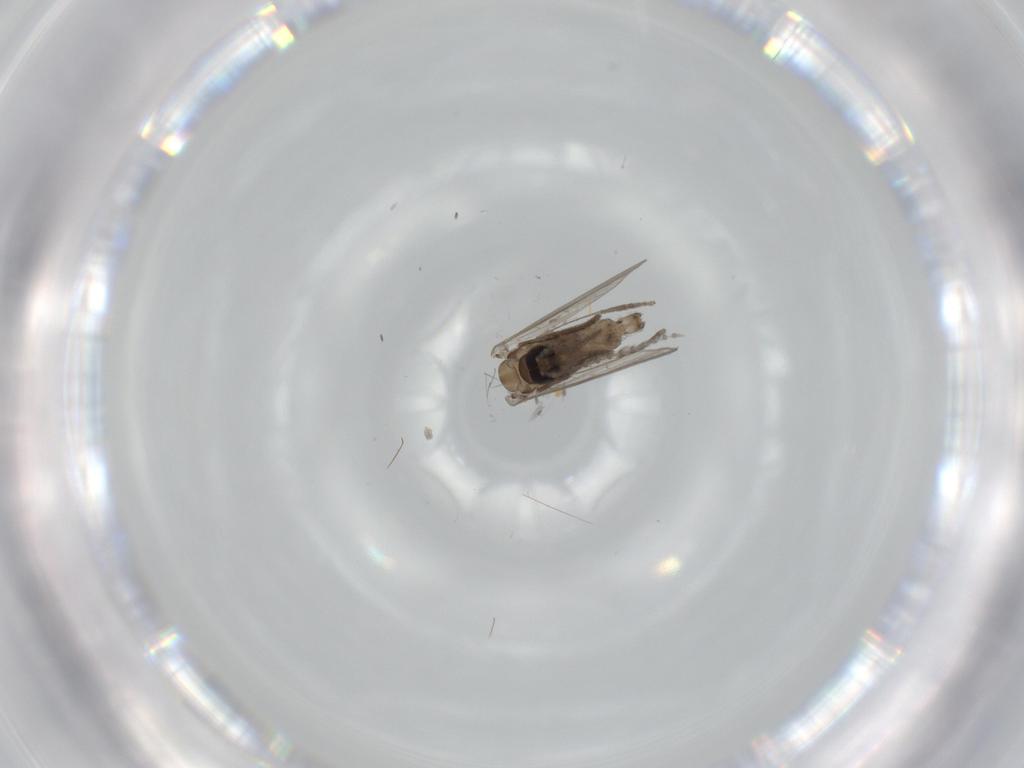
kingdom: Animalia
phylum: Arthropoda
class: Insecta
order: Diptera
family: Psychodidae
